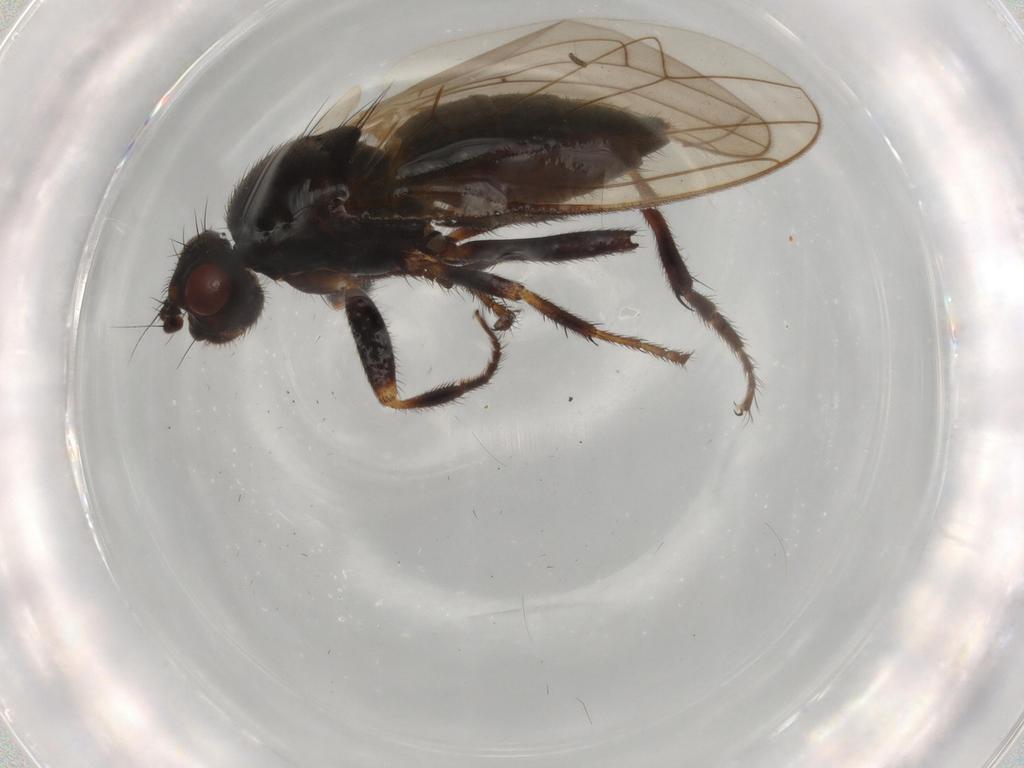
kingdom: Animalia
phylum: Arthropoda
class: Insecta
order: Diptera
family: Sphaeroceridae
